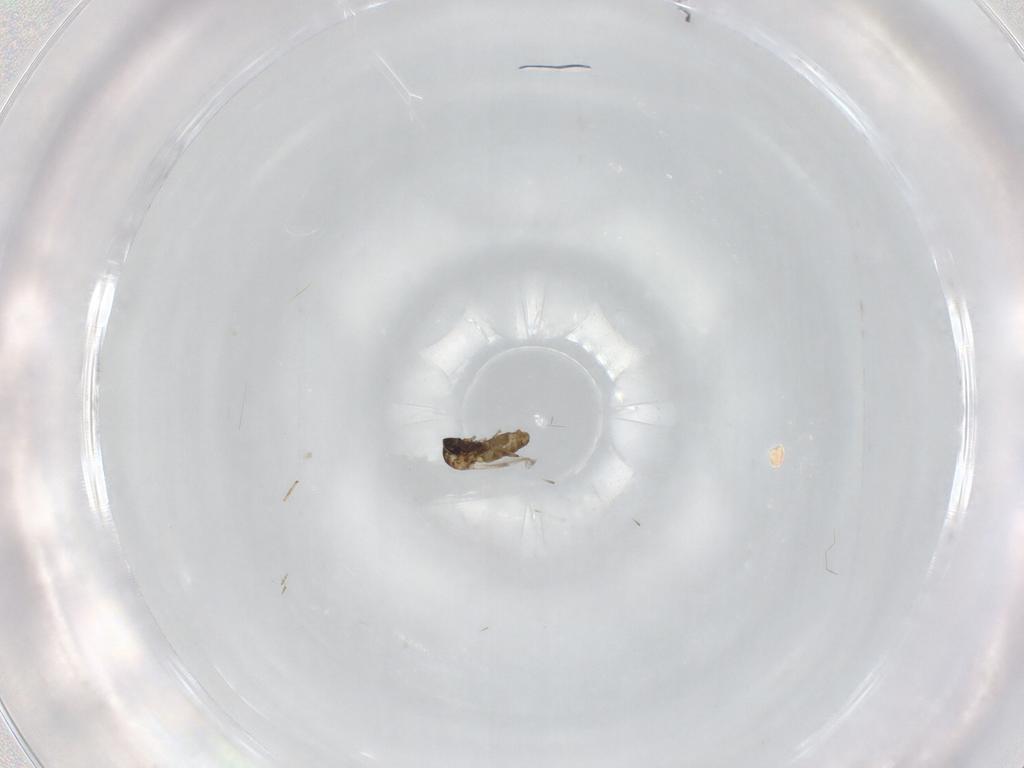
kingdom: Animalia
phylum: Arthropoda
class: Insecta
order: Diptera
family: Ceratopogonidae
